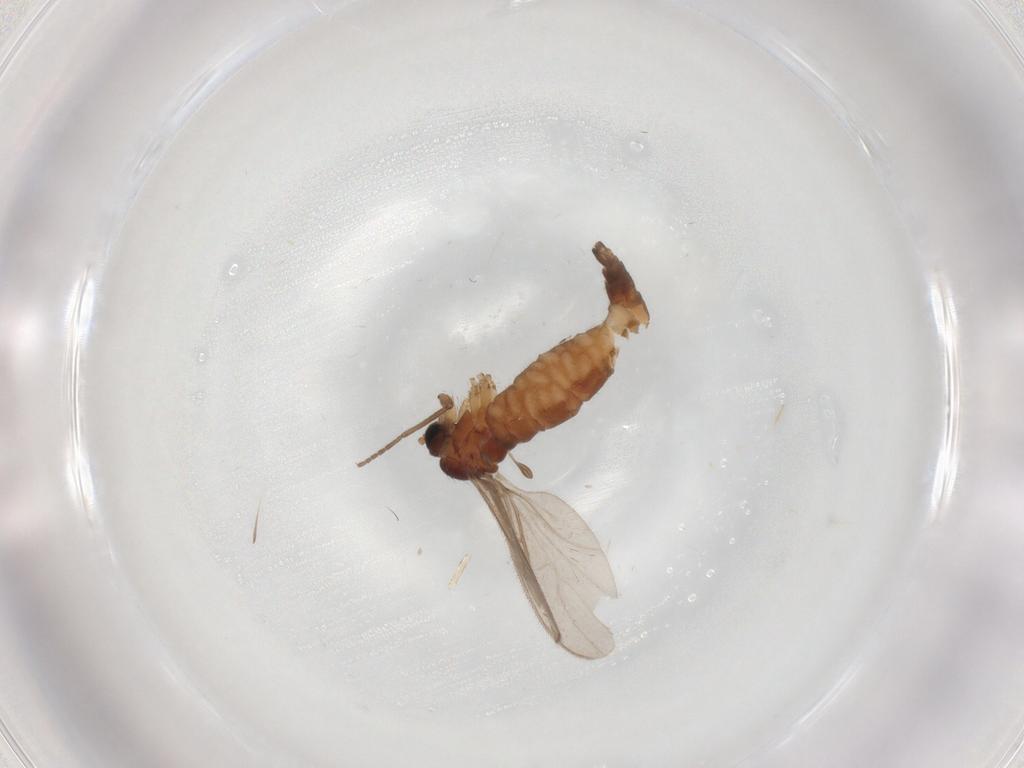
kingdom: Animalia
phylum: Arthropoda
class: Insecta
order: Diptera
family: Sciaridae
